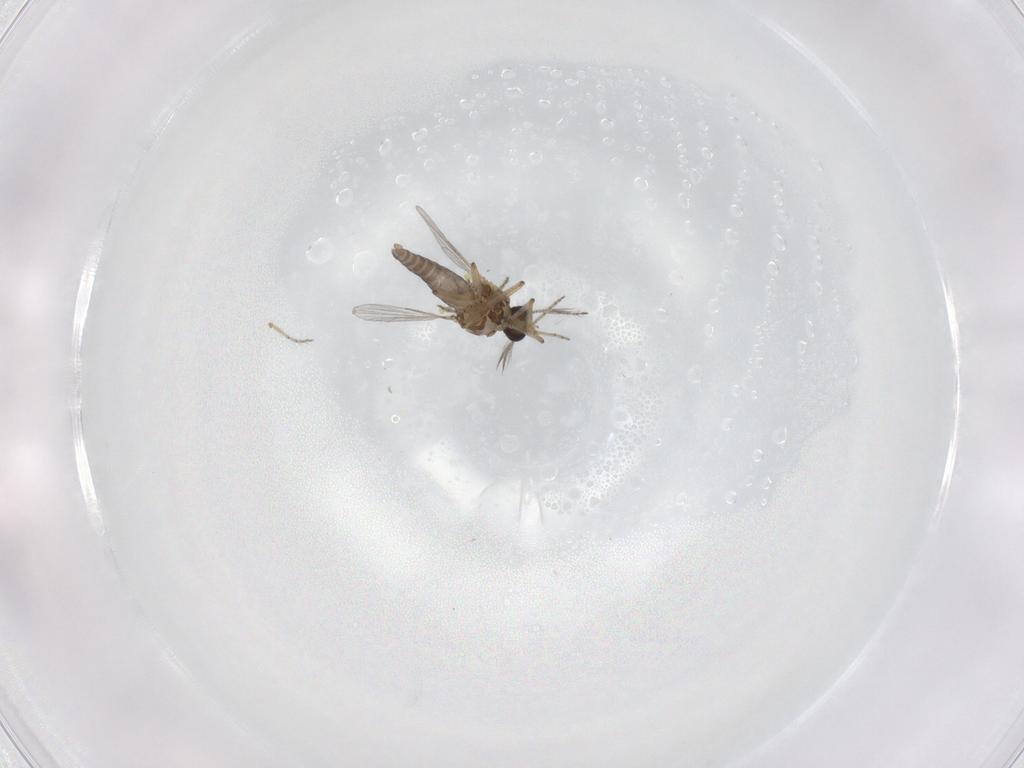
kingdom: Animalia
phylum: Arthropoda
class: Insecta
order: Diptera
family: Ceratopogonidae
